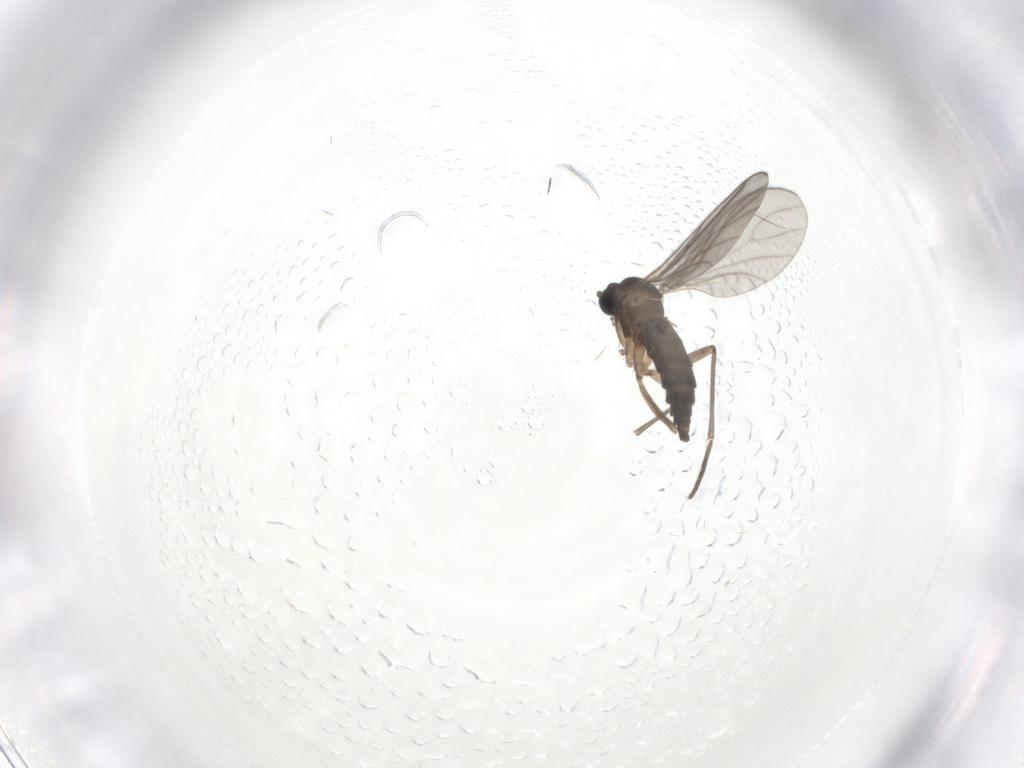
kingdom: Animalia
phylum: Arthropoda
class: Insecta
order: Diptera
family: Sciaridae
